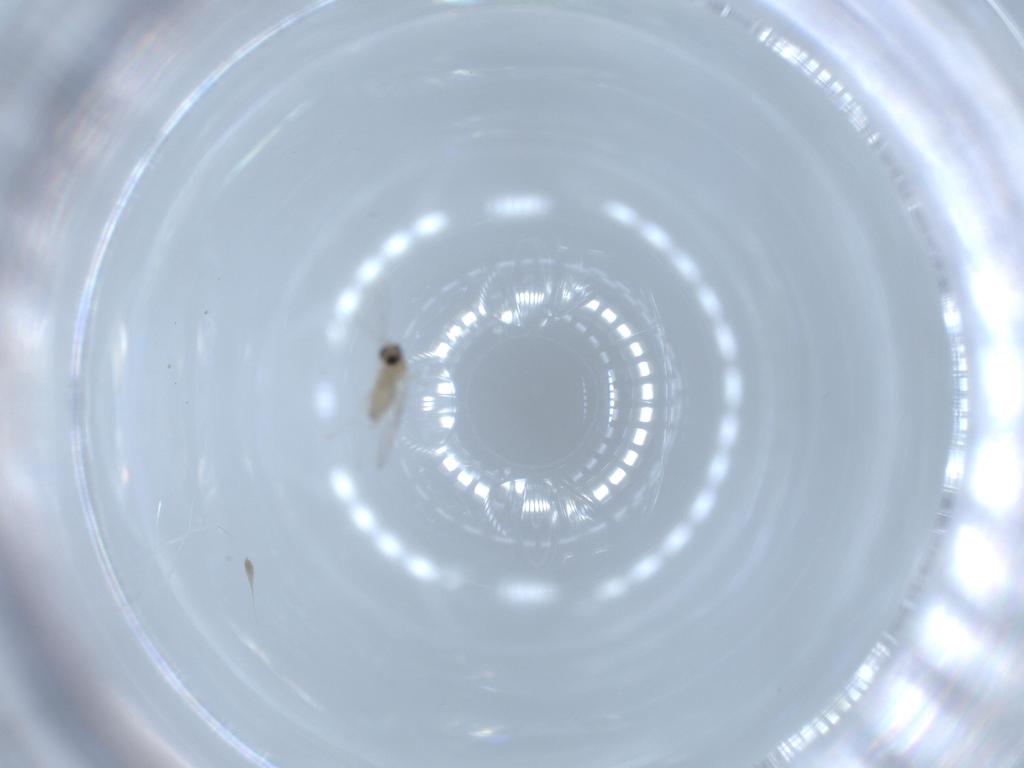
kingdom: Animalia
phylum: Arthropoda
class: Insecta
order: Diptera
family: Cecidomyiidae
